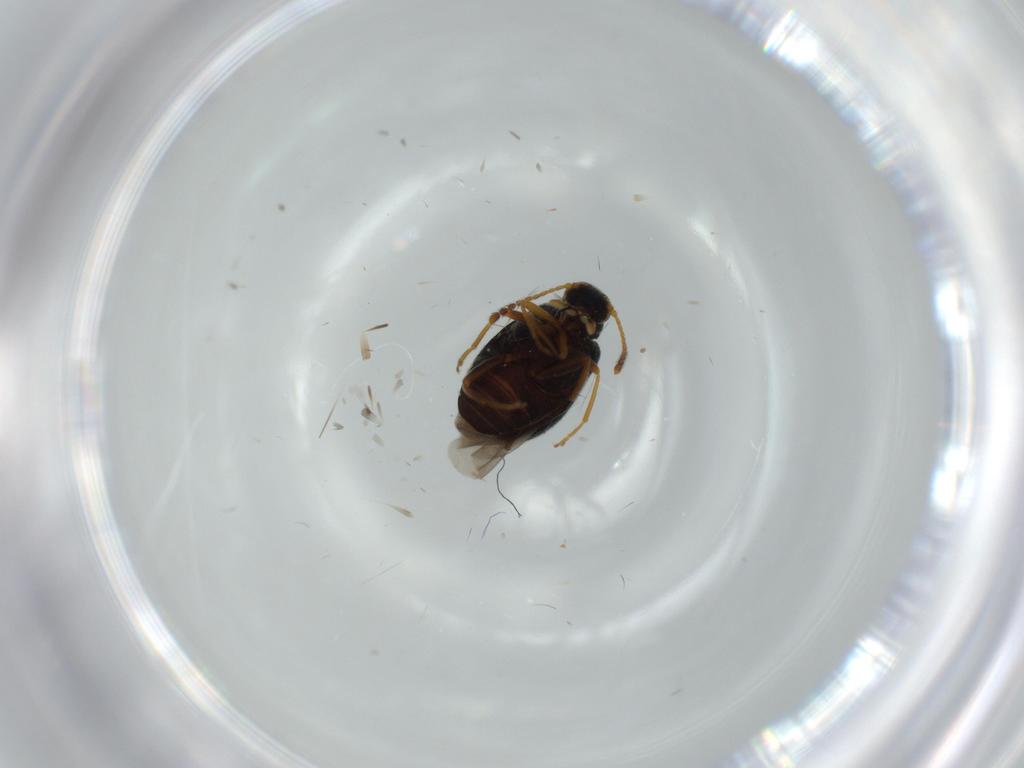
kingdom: Animalia
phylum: Arthropoda
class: Insecta
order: Coleoptera
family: Aderidae
